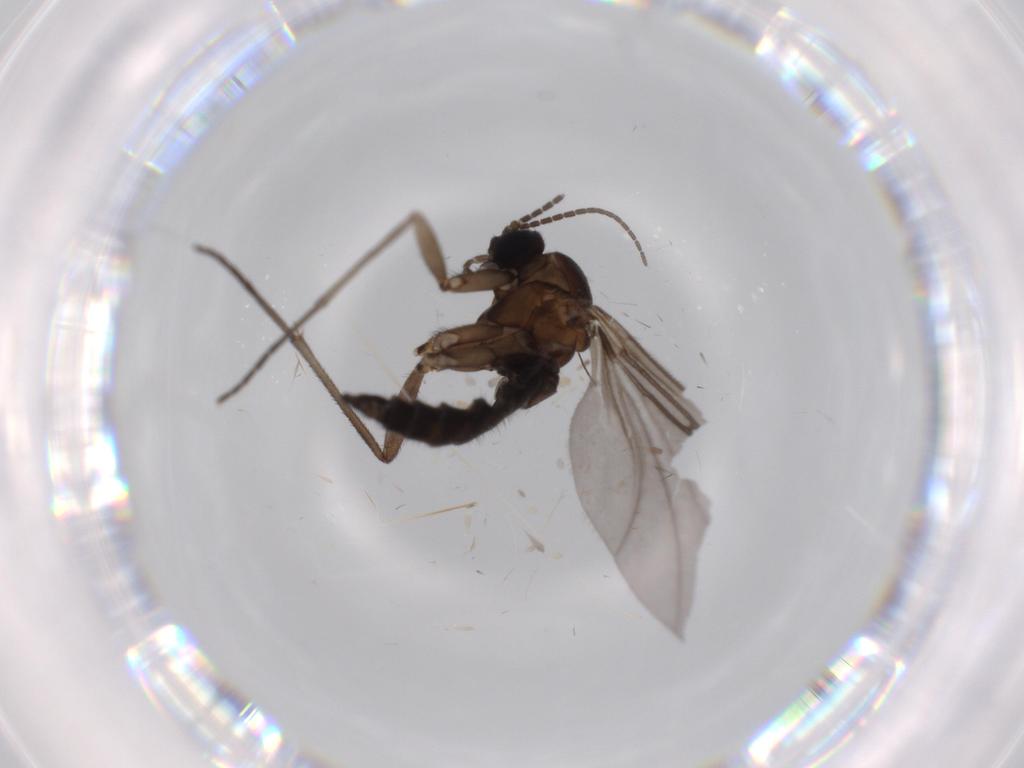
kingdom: Animalia
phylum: Arthropoda
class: Insecta
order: Diptera
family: Sciaridae
